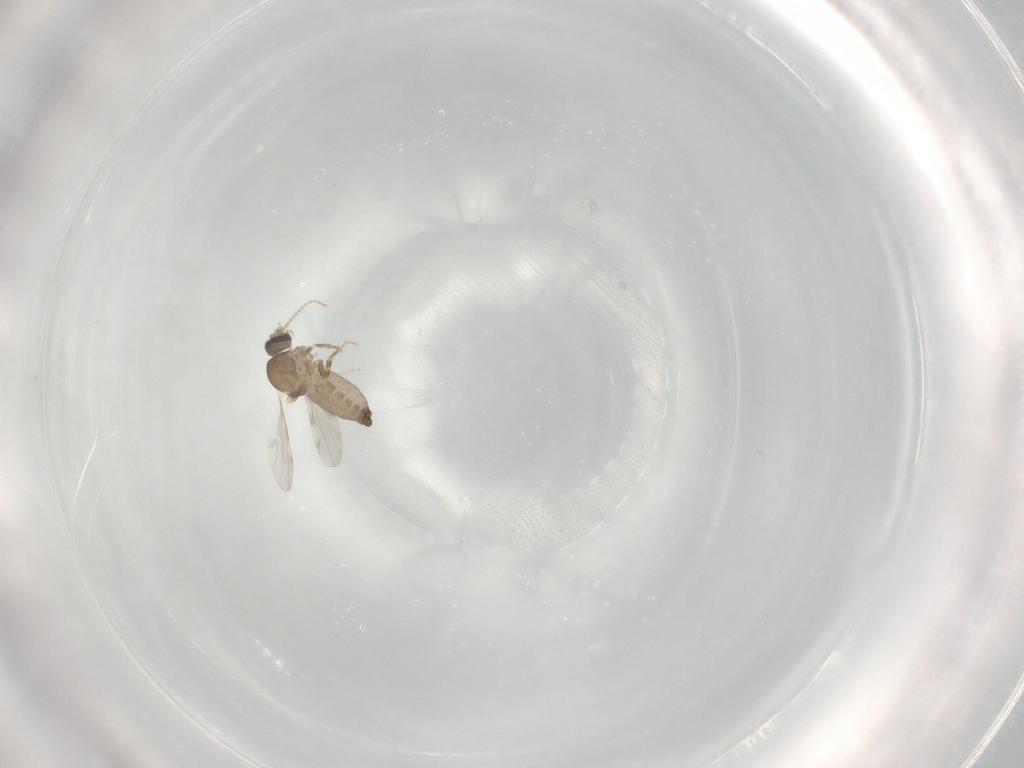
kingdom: Animalia
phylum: Arthropoda
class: Insecta
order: Diptera
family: Ceratopogonidae
